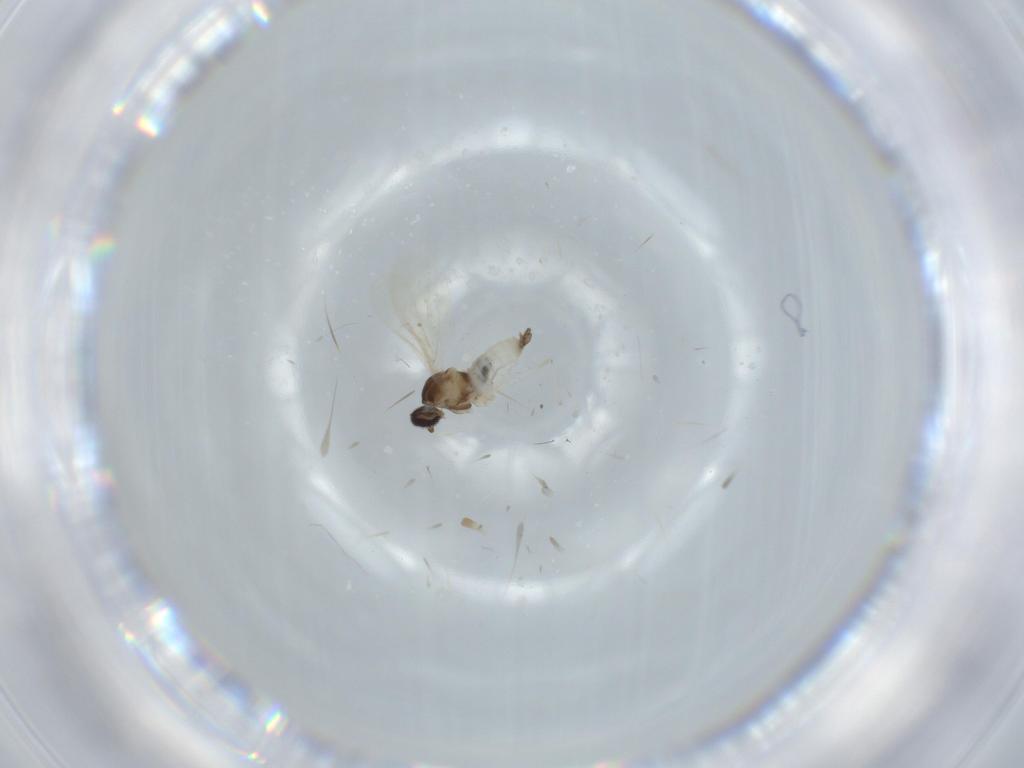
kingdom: Animalia
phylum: Arthropoda
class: Insecta
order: Diptera
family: Cecidomyiidae
